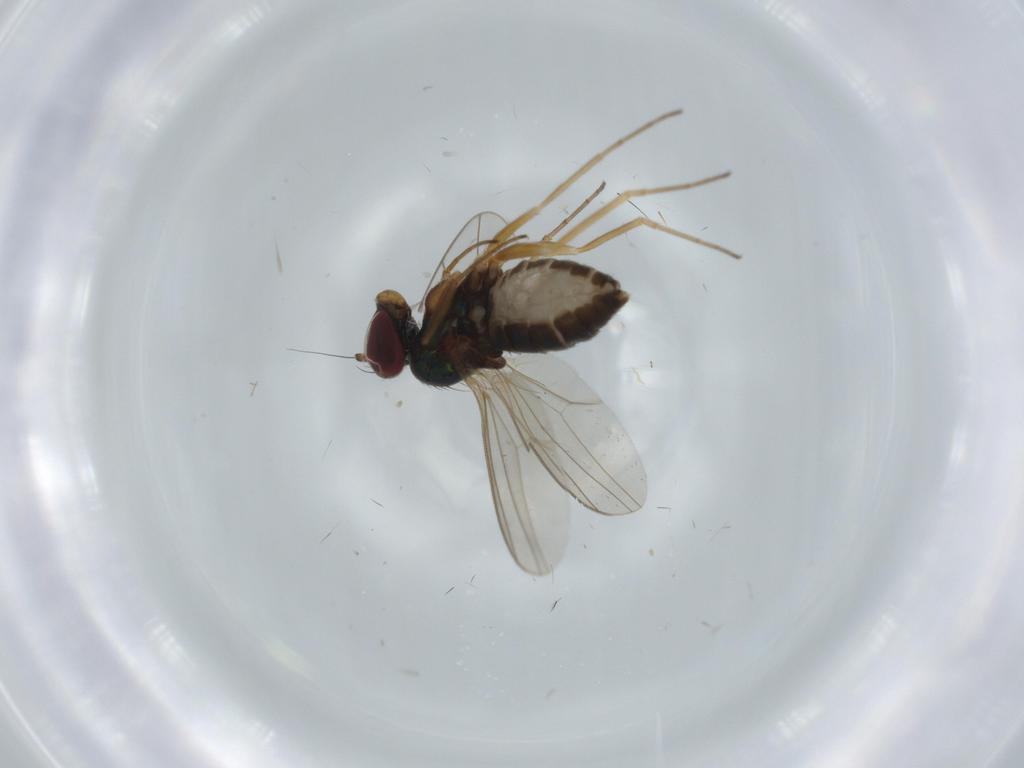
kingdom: Animalia
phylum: Arthropoda
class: Insecta
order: Diptera
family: Dolichopodidae
